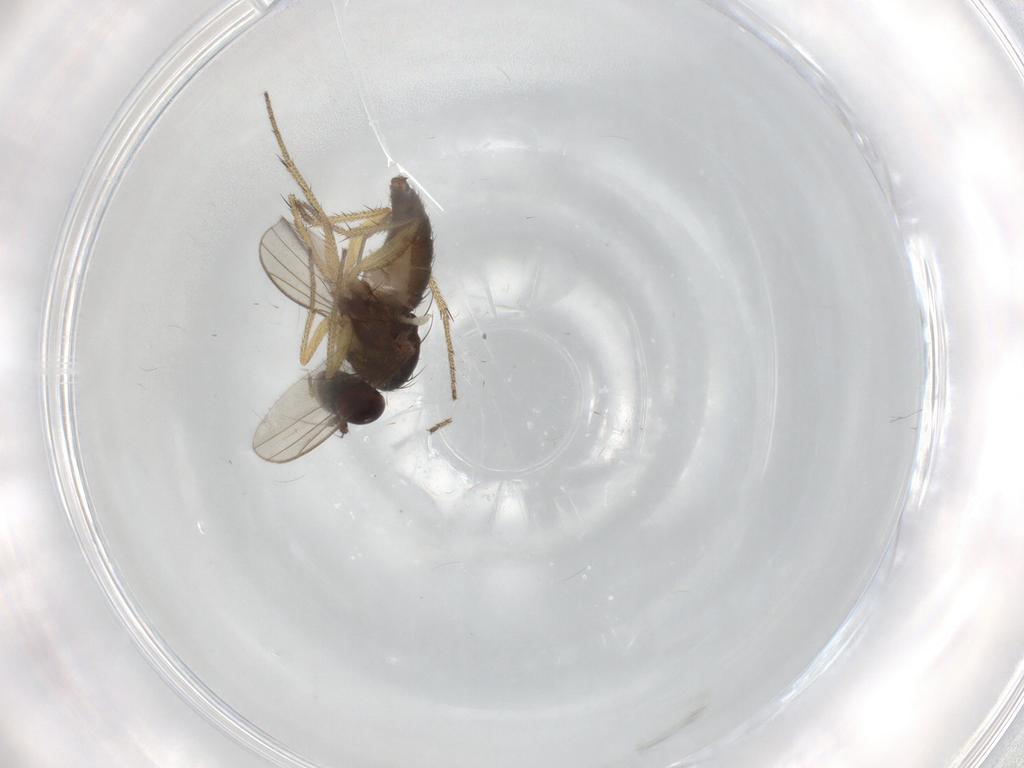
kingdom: Animalia
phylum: Arthropoda
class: Insecta
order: Diptera
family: Sciaridae
